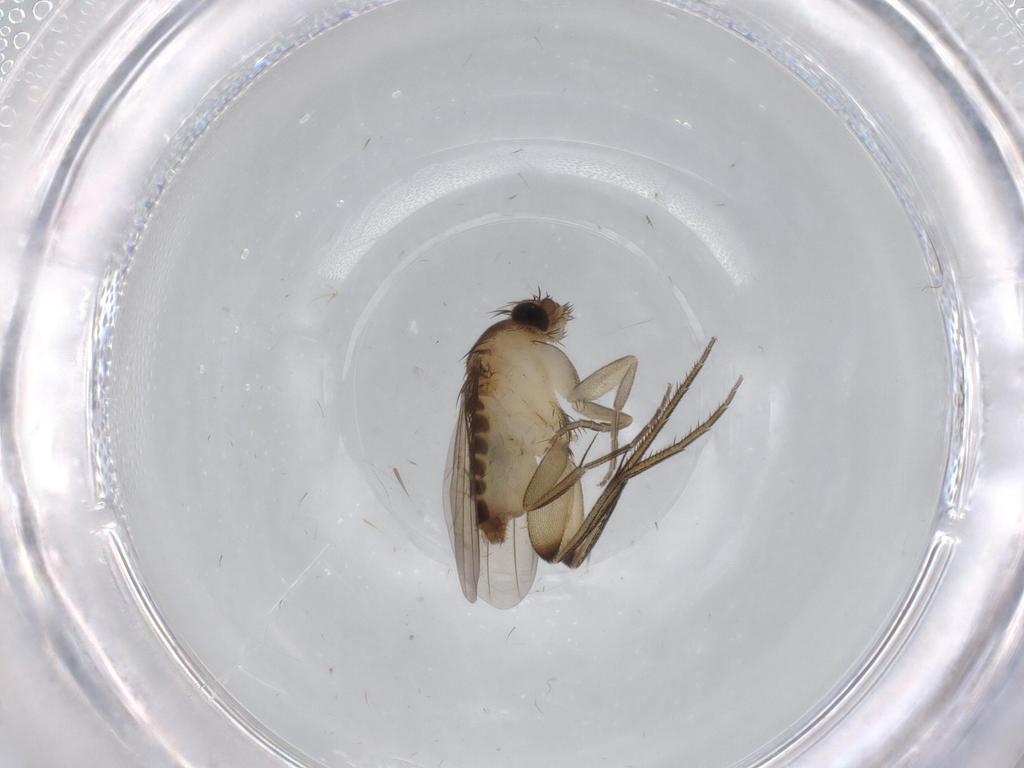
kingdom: Animalia
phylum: Arthropoda
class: Insecta
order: Diptera
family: Phoridae
